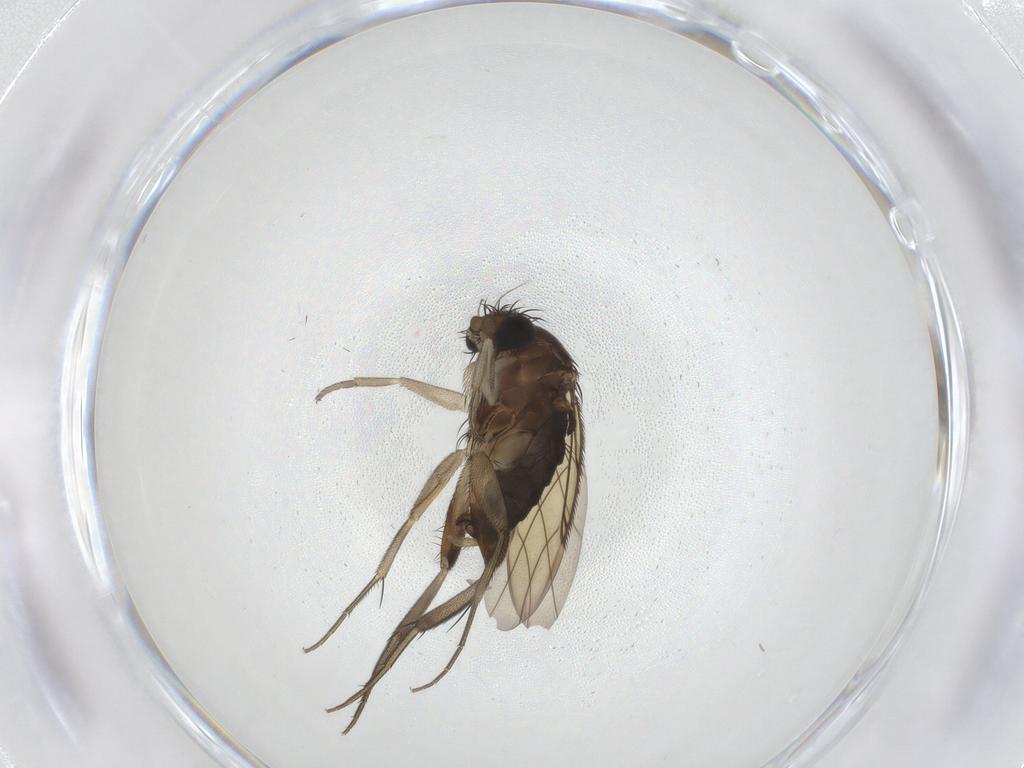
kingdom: Animalia
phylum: Arthropoda
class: Insecta
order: Diptera
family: Phoridae
